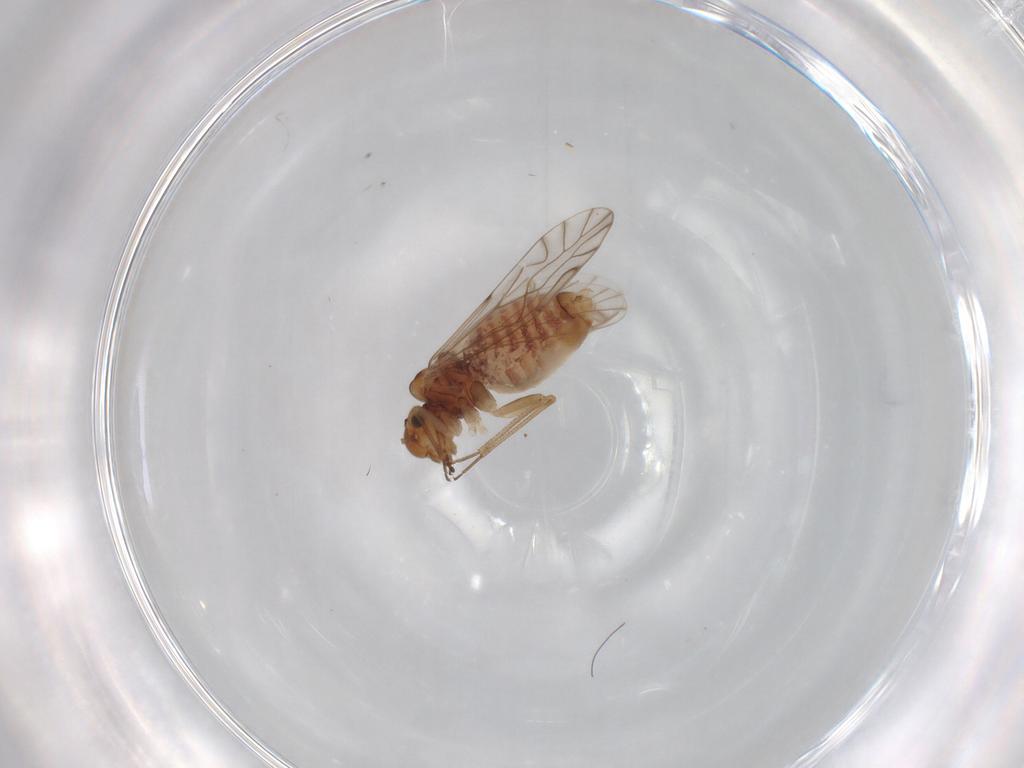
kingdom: Animalia
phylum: Arthropoda
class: Insecta
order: Psocodea
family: Lachesillidae
